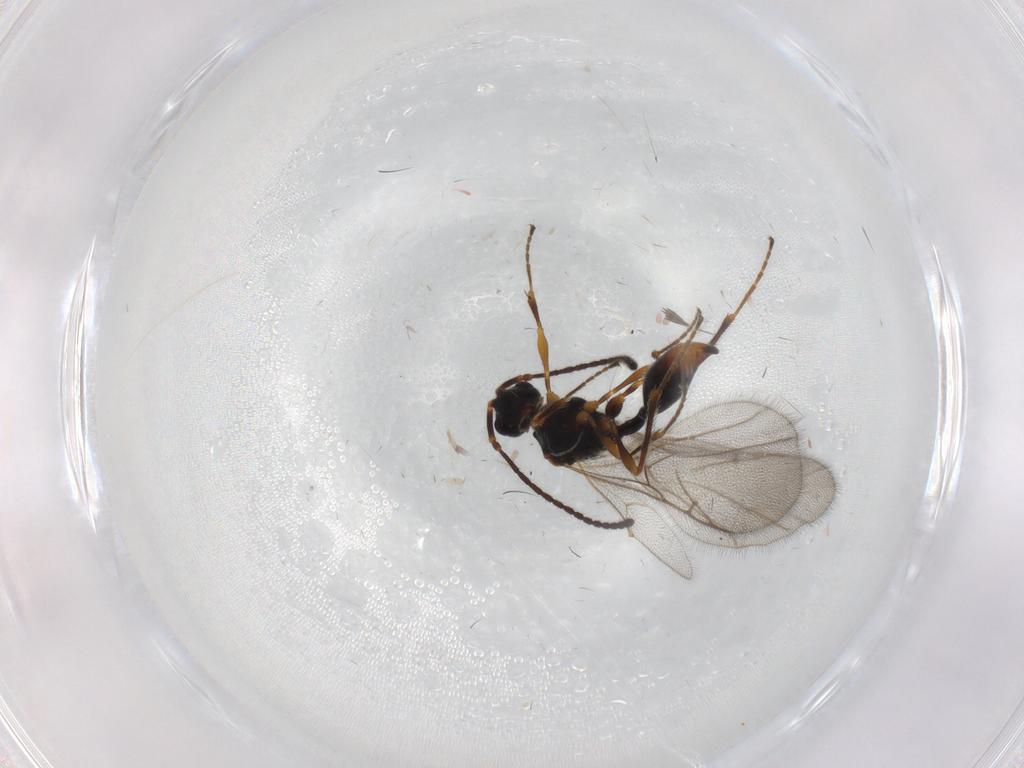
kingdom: Animalia
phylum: Arthropoda
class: Insecta
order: Hymenoptera
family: Diapriidae
